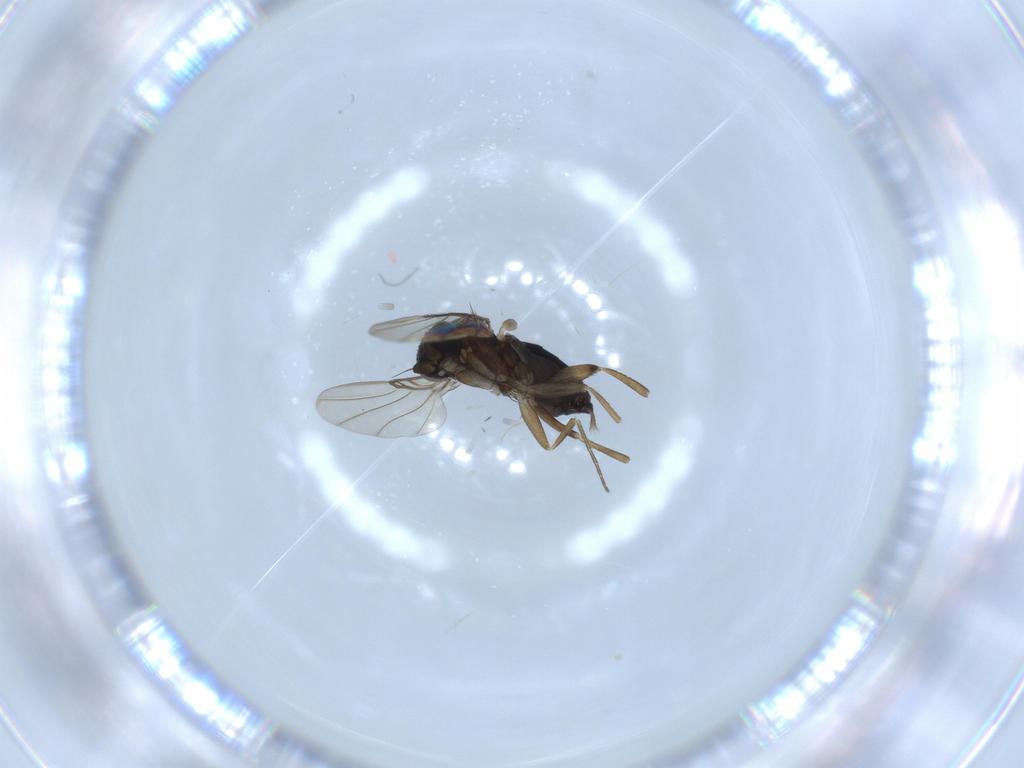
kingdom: Animalia
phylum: Arthropoda
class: Insecta
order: Diptera
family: Phoridae
